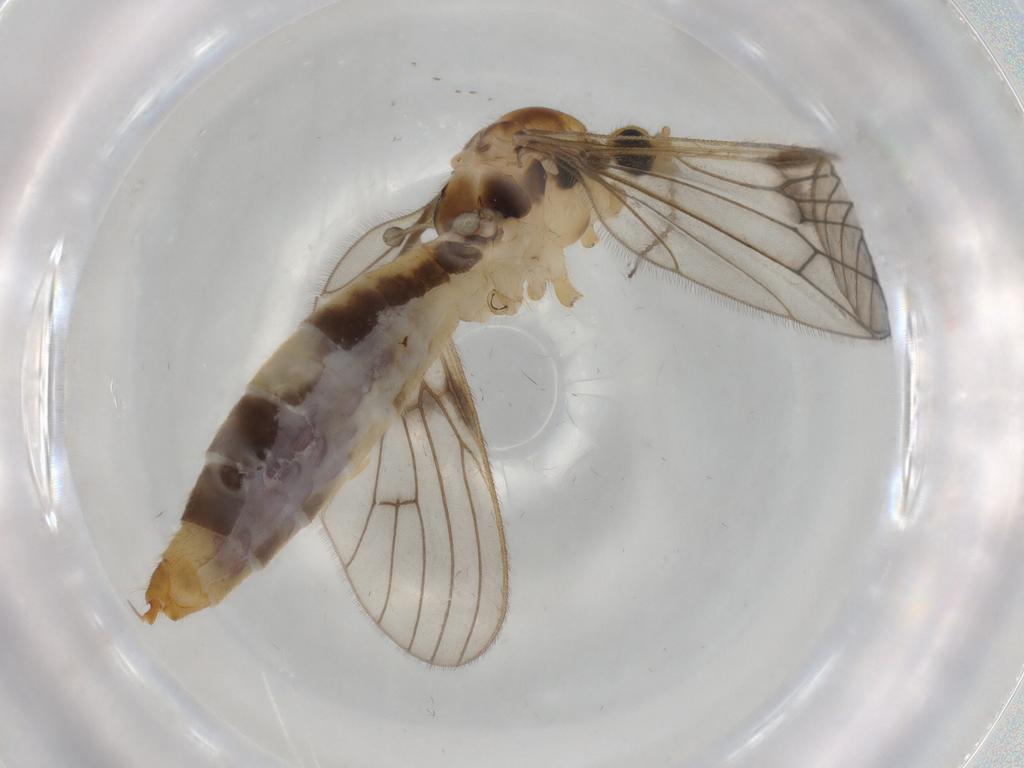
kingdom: Animalia
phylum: Arthropoda
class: Insecta
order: Diptera
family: Limoniidae
